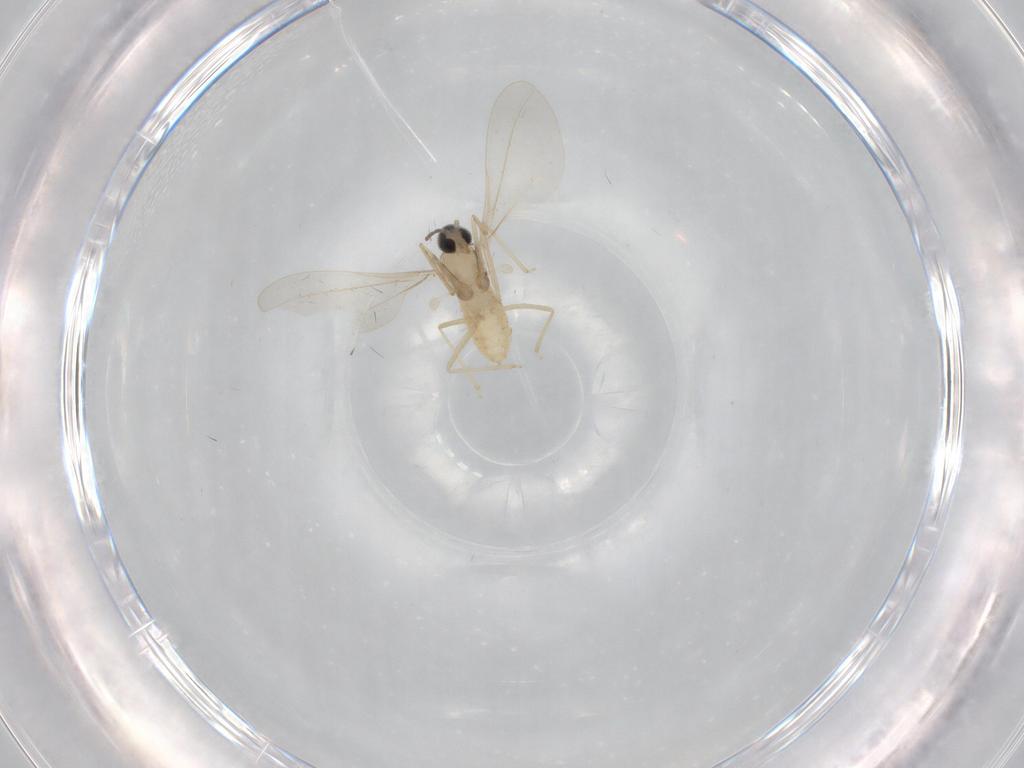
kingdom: Animalia
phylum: Arthropoda
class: Insecta
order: Diptera
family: Cecidomyiidae
